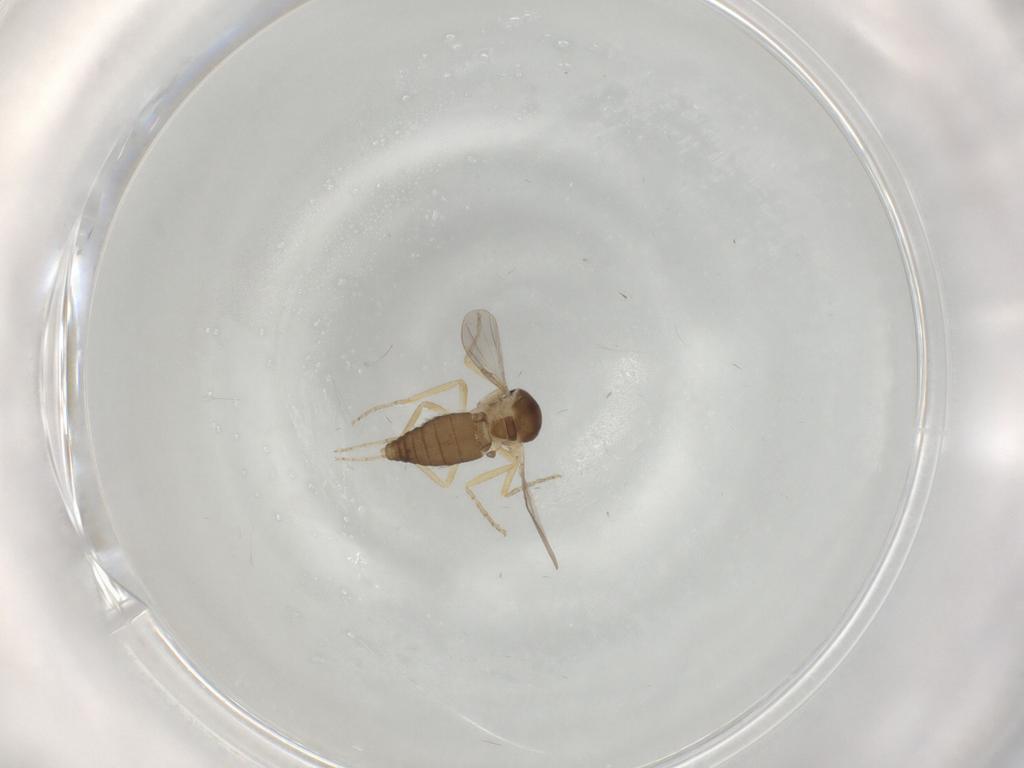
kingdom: Animalia
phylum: Arthropoda
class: Insecta
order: Diptera
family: Ceratopogonidae
